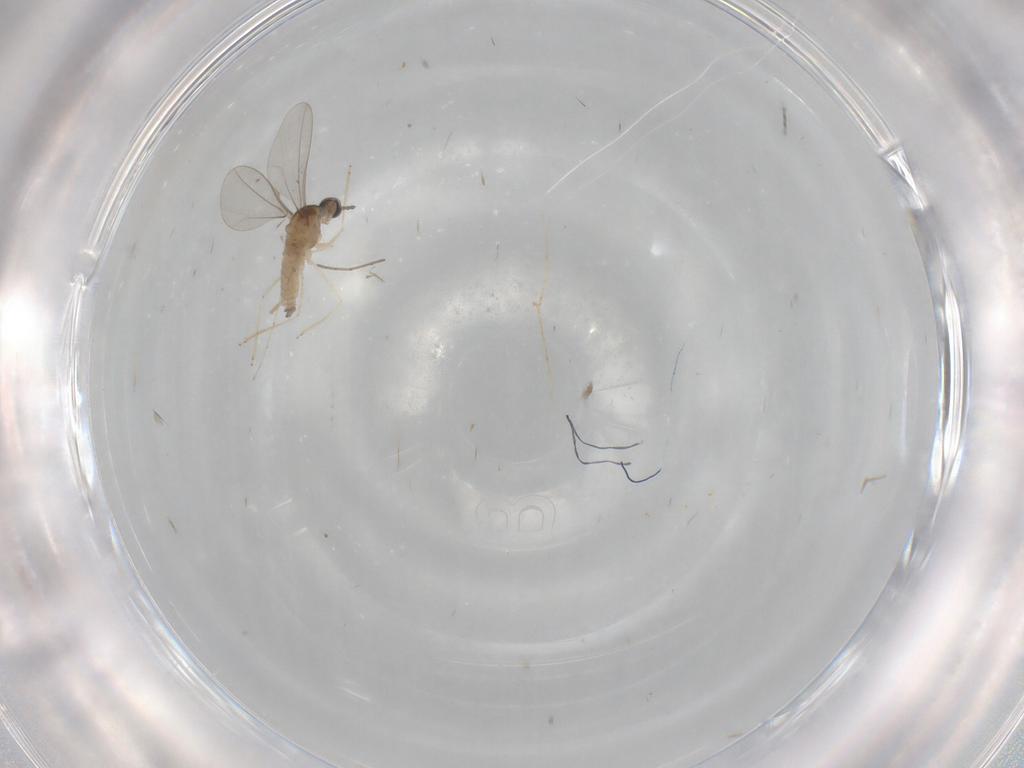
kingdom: Animalia
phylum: Arthropoda
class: Insecta
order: Diptera
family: Cecidomyiidae
